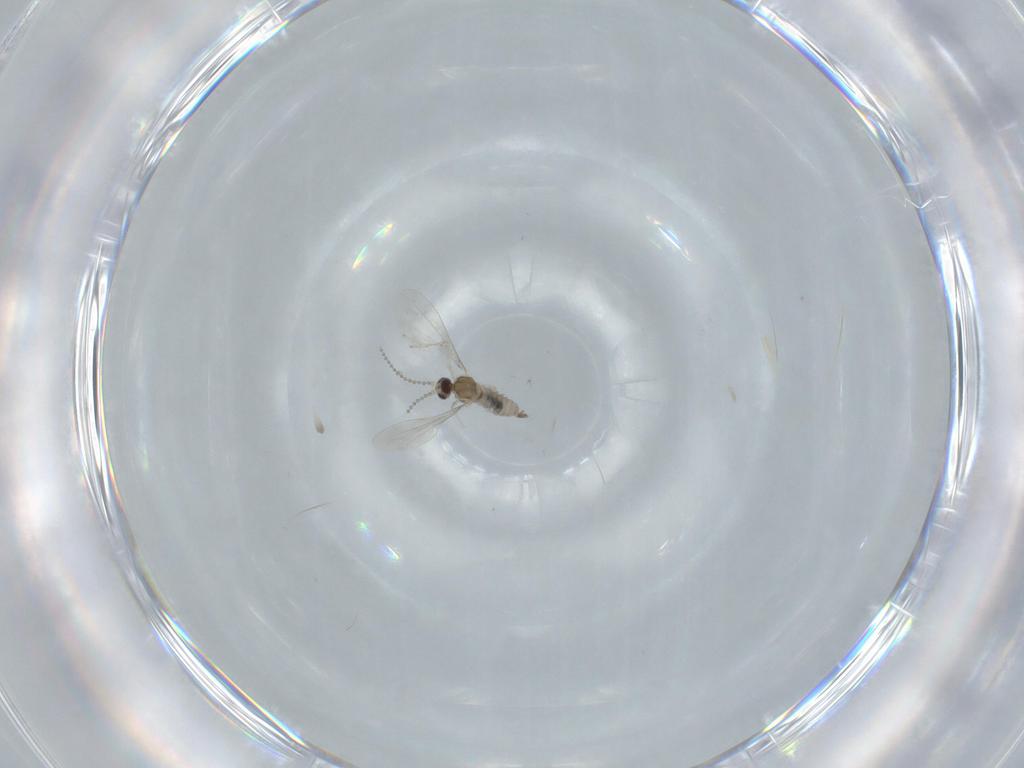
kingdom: Animalia
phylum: Arthropoda
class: Insecta
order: Diptera
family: Cecidomyiidae
